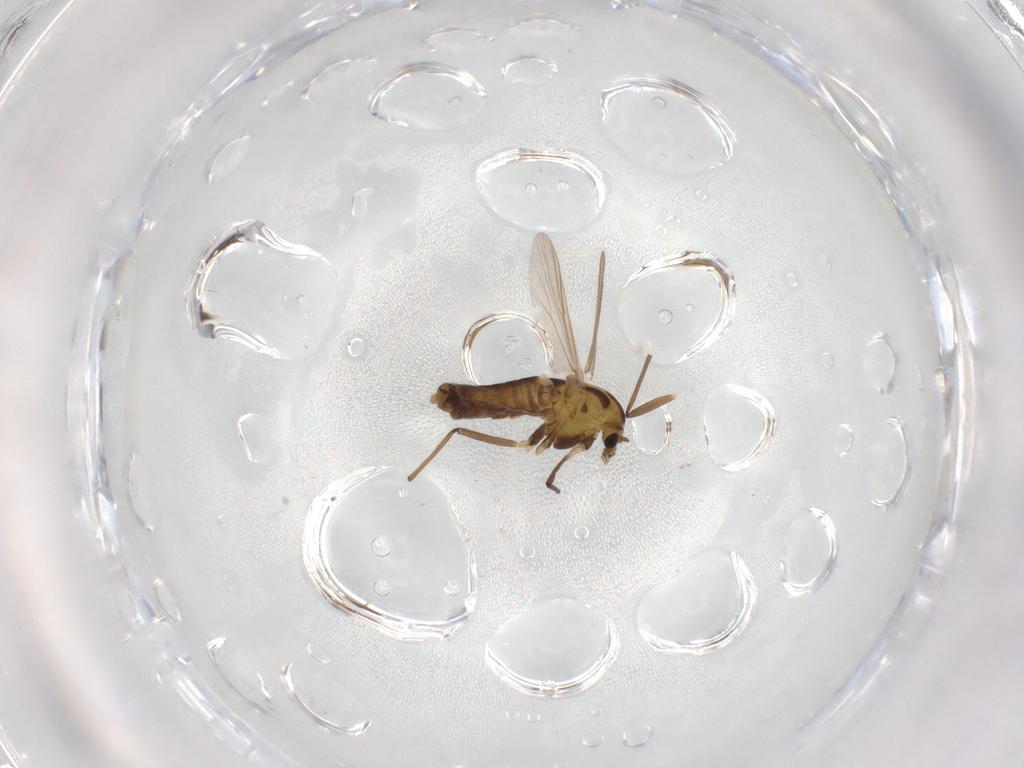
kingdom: Animalia
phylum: Arthropoda
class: Insecta
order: Diptera
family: Chironomidae
